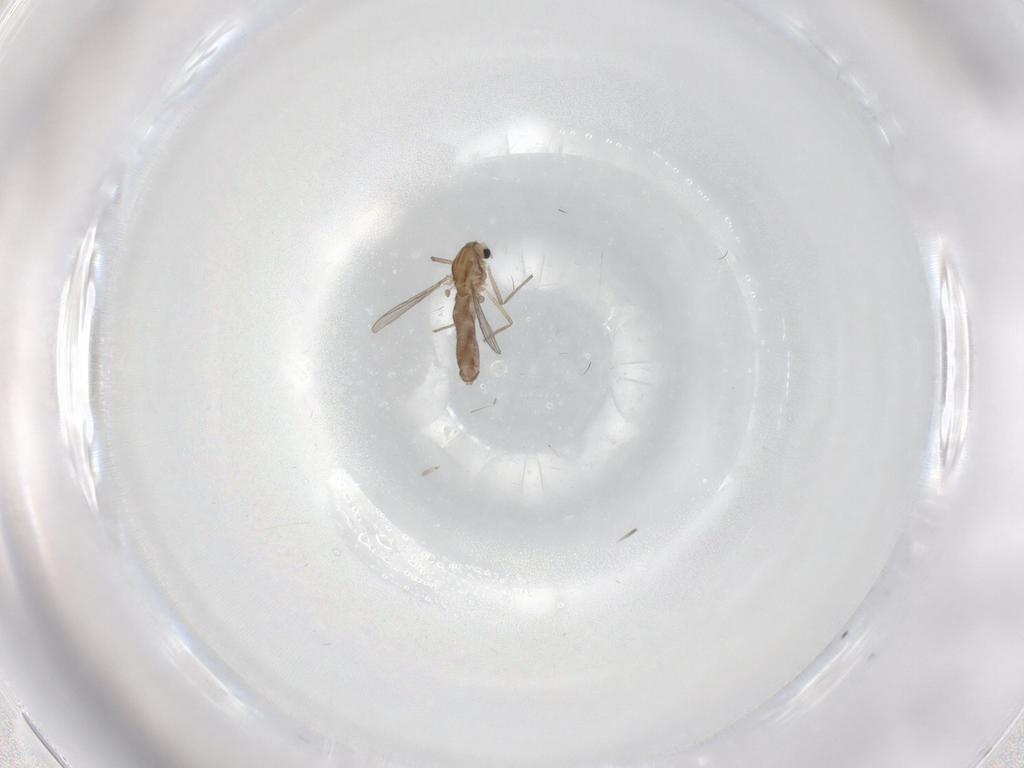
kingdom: Animalia
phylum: Arthropoda
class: Insecta
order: Diptera
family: Chironomidae
